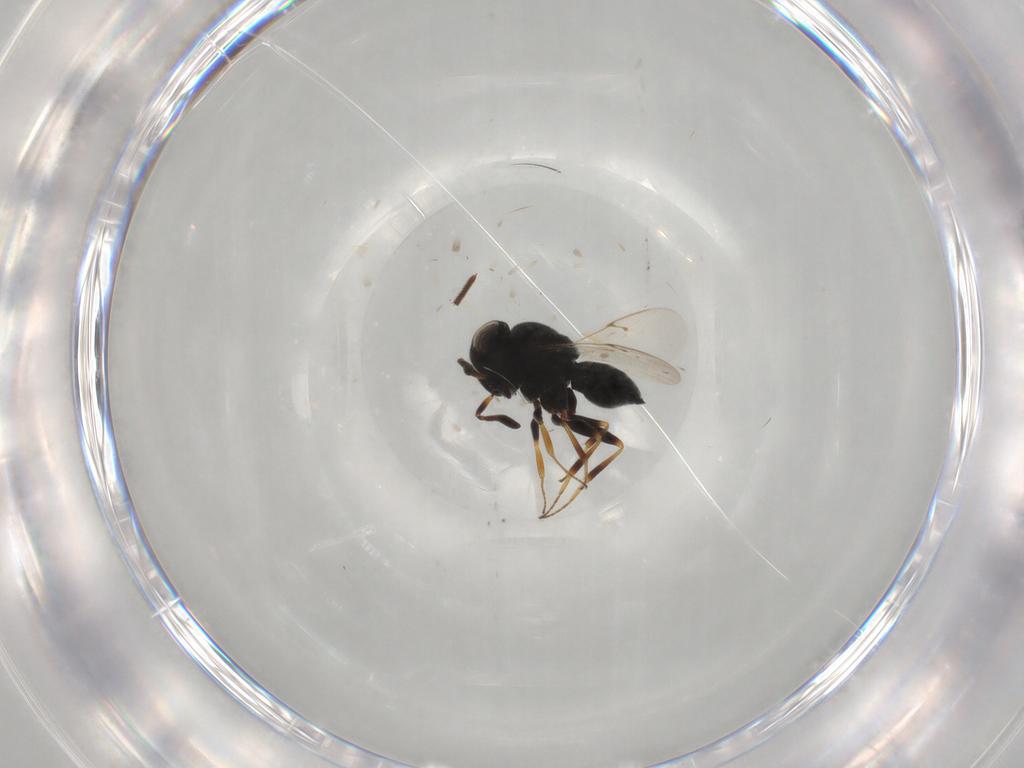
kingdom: Animalia
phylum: Arthropoda
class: Insecta
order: Hymenoptera
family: Scelionidae
